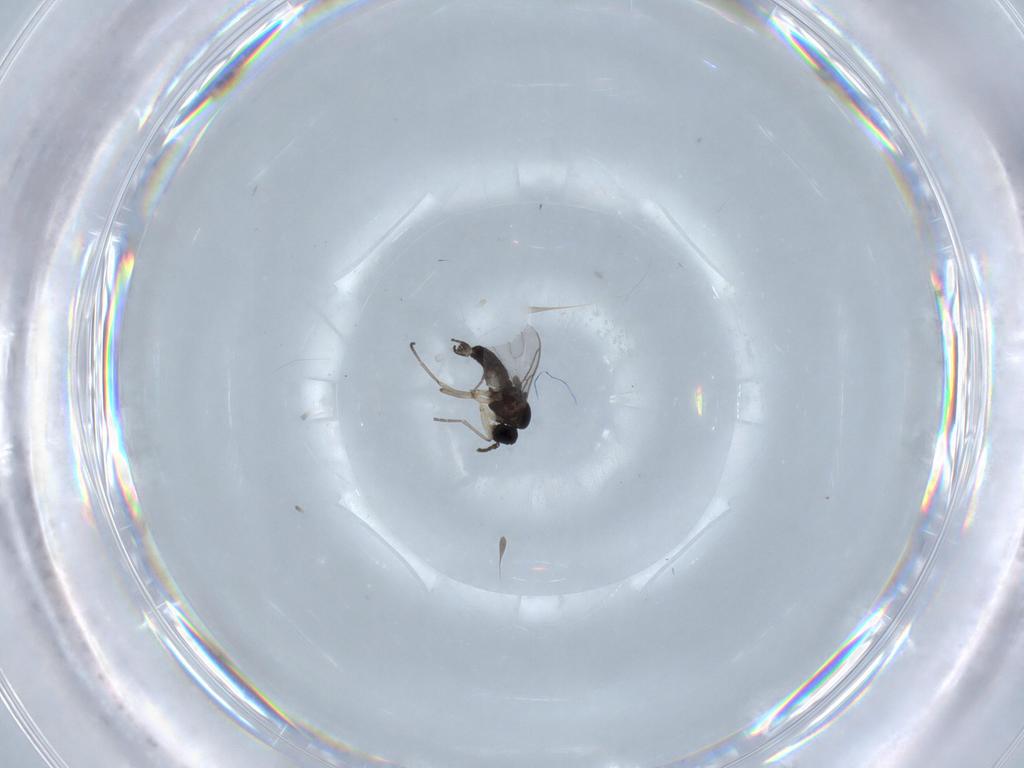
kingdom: Animalia
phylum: Arthropoda
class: Insecta
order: Diptera
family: Sciaridae
